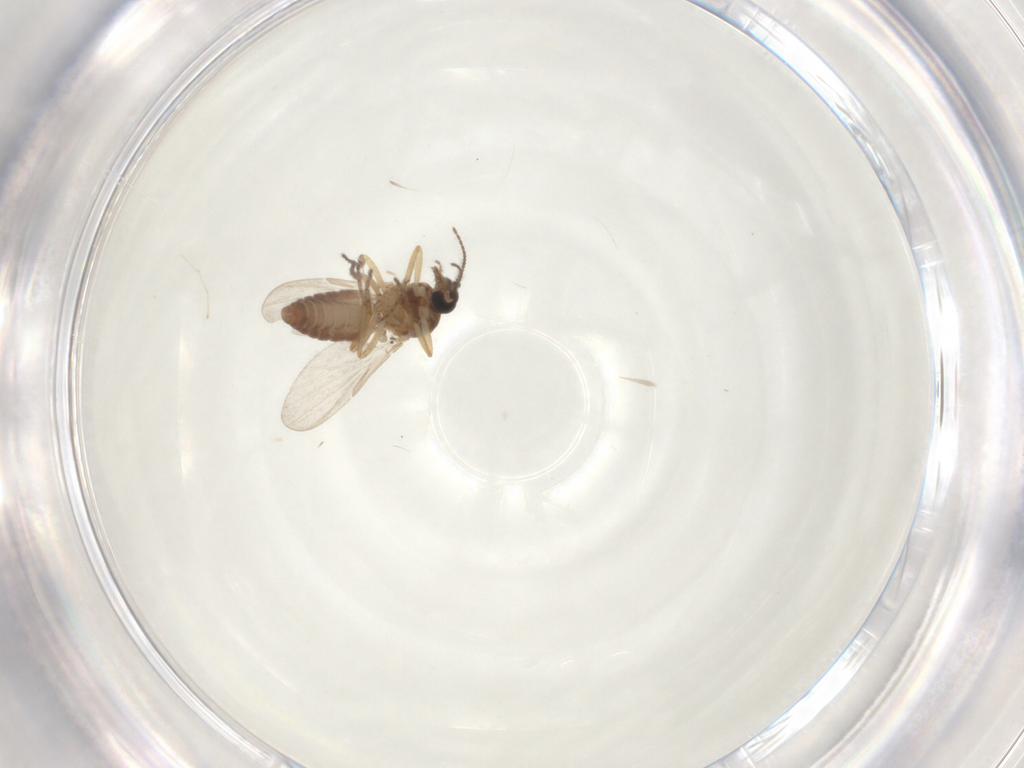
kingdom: Animalia
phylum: Arthropoda
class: Insecta
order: Diptera
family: Ceratopogonidae
